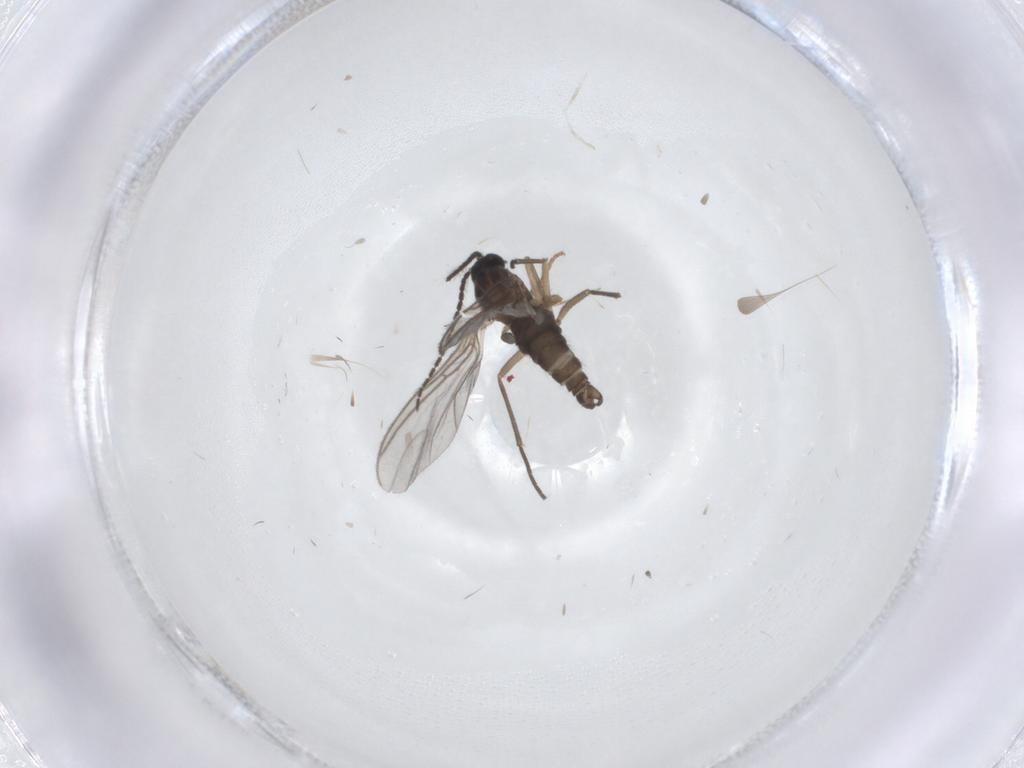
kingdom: Animalia
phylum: Arthropoda
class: Insecta
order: Diptera
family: Sciaridae
